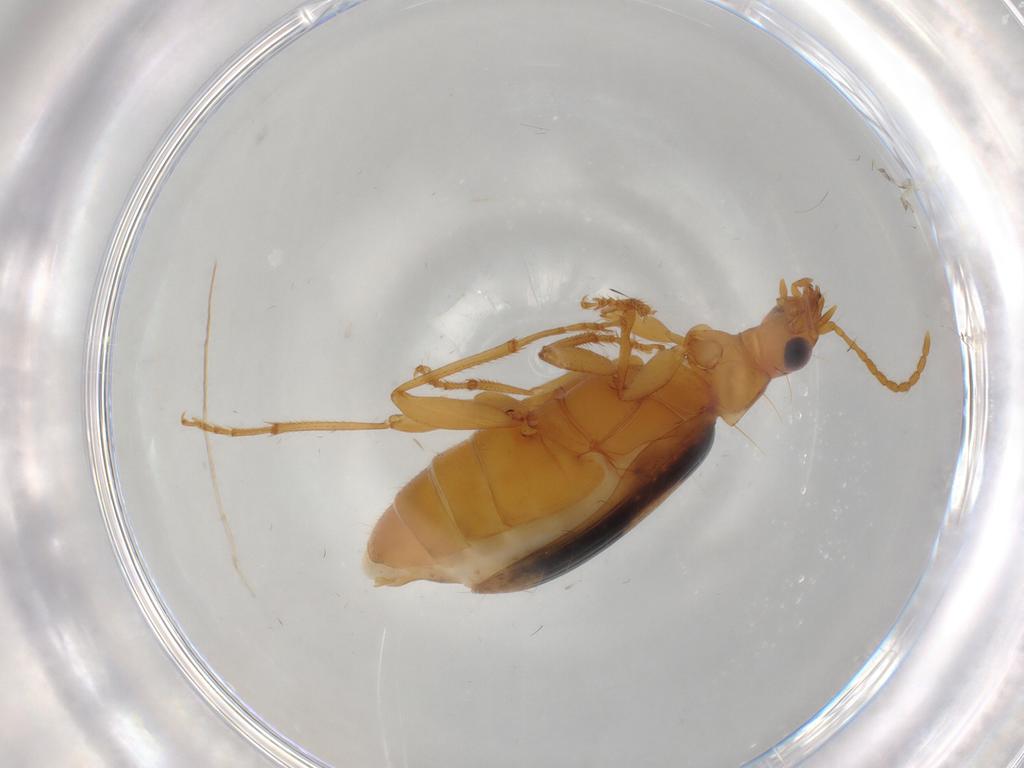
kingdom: Animalia
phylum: Arthropoda
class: Insecta
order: Coleoptera
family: Carabidae
